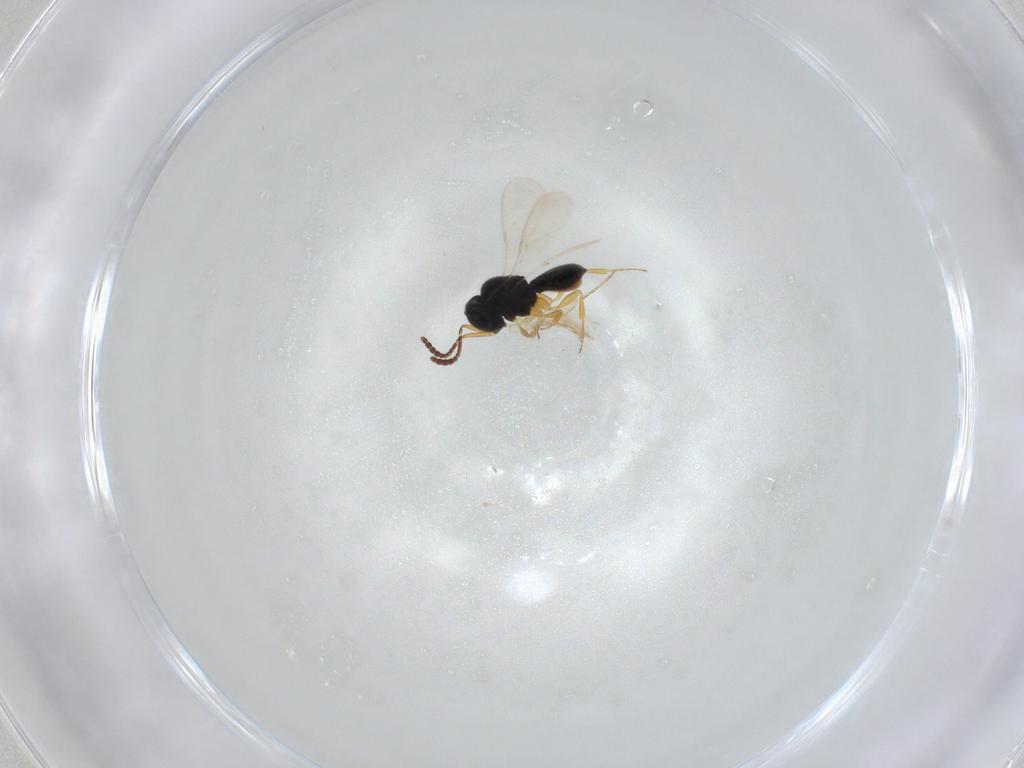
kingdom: Animalia
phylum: Arthropoda
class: Insecta
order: Hymenoptera
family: Scelionidae
